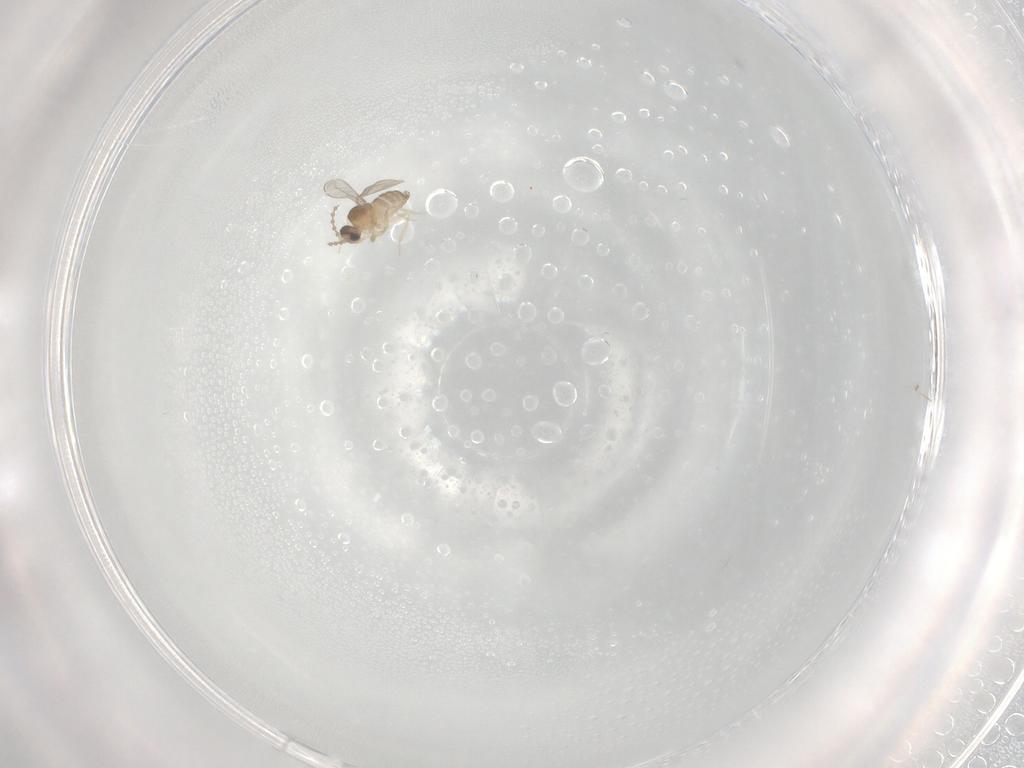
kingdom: Animalia
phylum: Arthropoda
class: Insecta
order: Diptera
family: Cecidomyiidae
